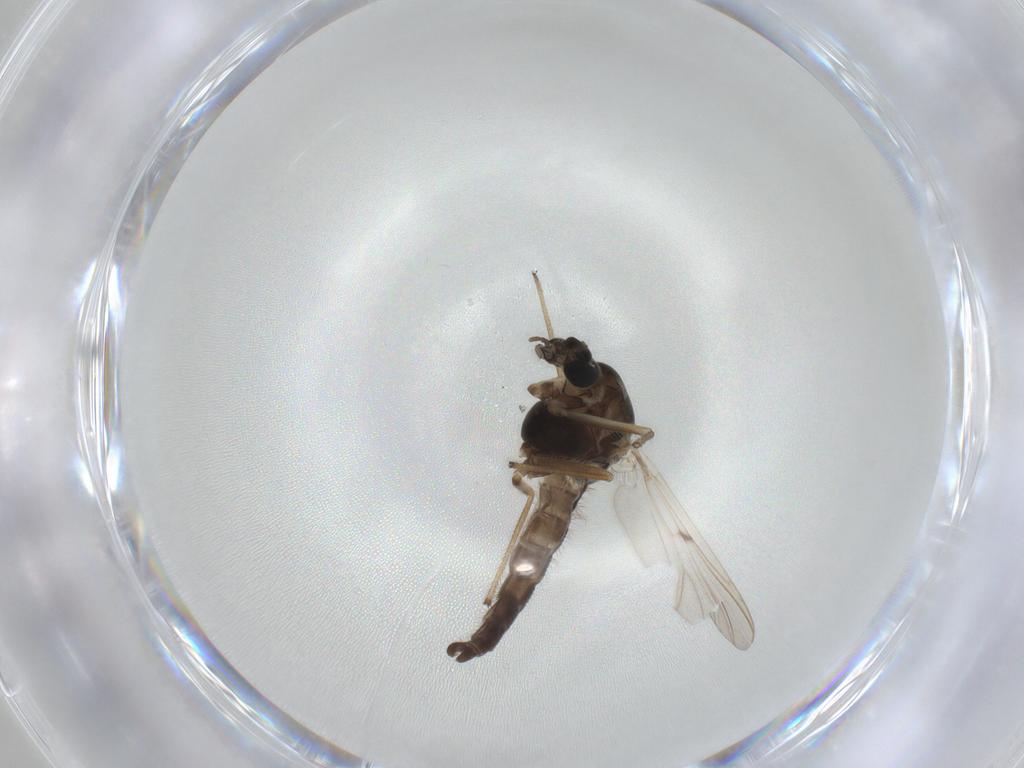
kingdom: Animalia
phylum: Arthropoda
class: Insecta
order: Diptera
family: Chironomidae
